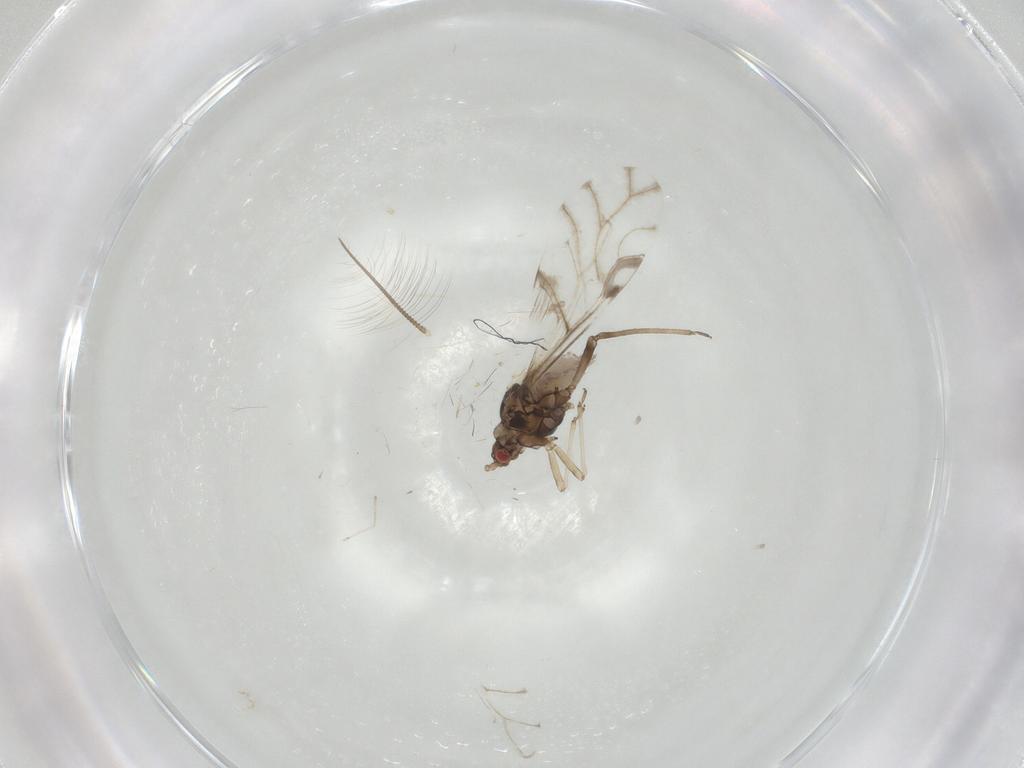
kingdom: Animalia
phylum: Arthropoda
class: Insecta
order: Hemiptera
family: Aphididae
